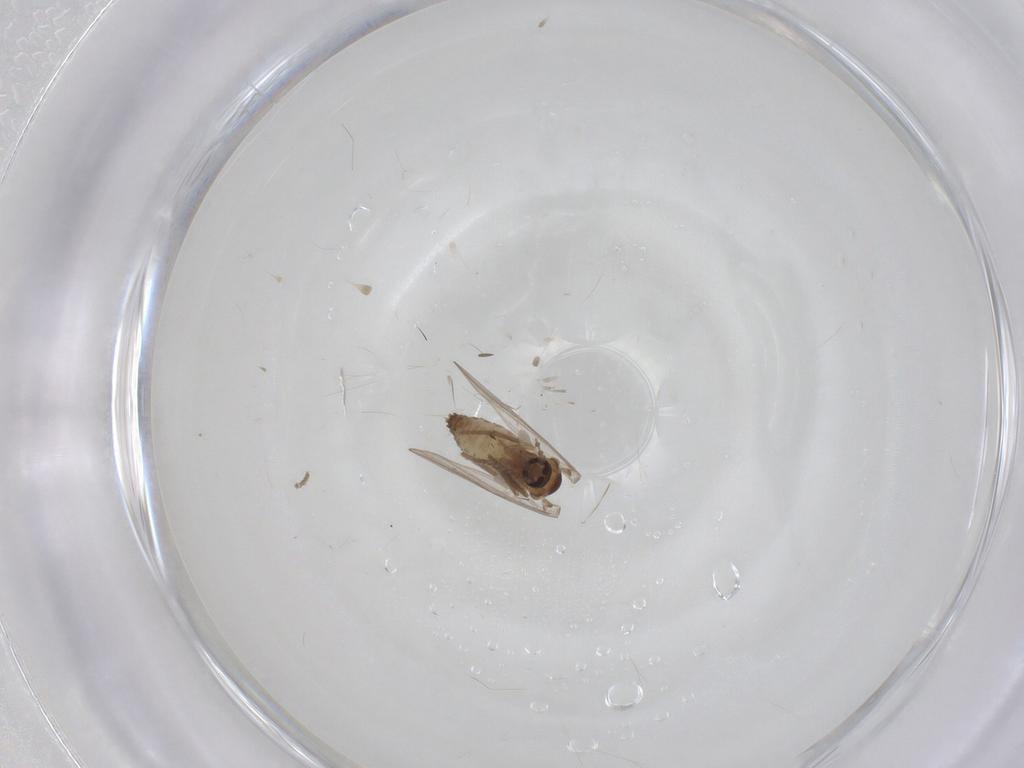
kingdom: Animalia
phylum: Arthropoda
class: Insecta
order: Diptera
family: Psychodidae
